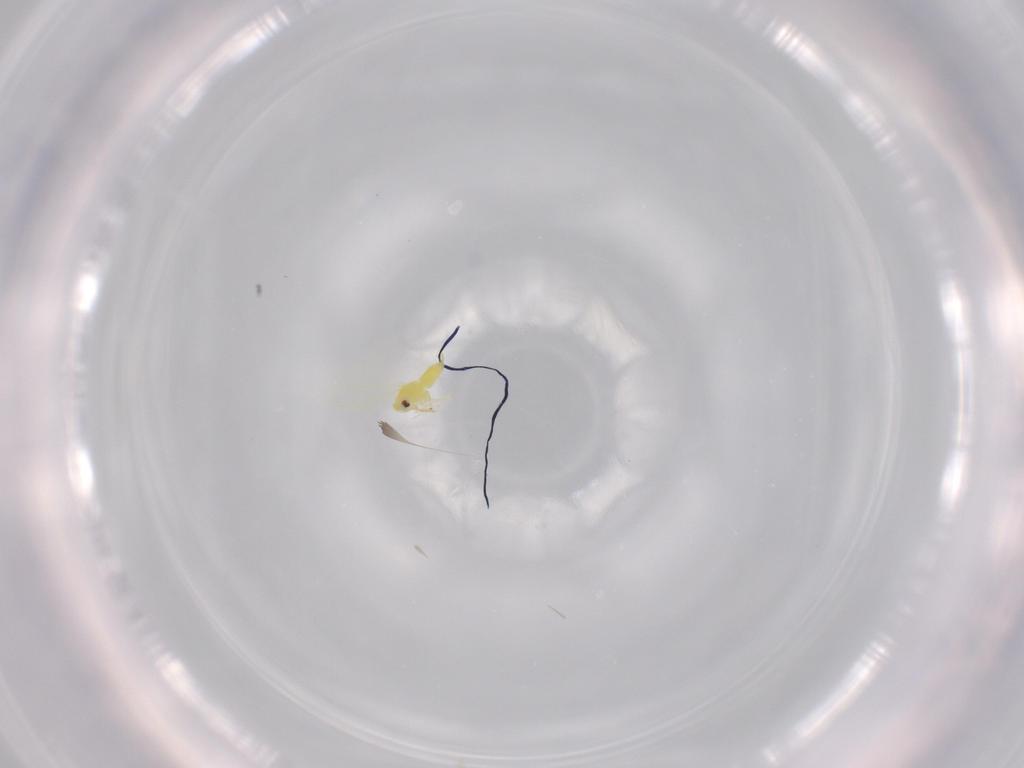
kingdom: Animalia
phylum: Arthropoda
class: Insecta
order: Hemiptera
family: Aleyrodidae
